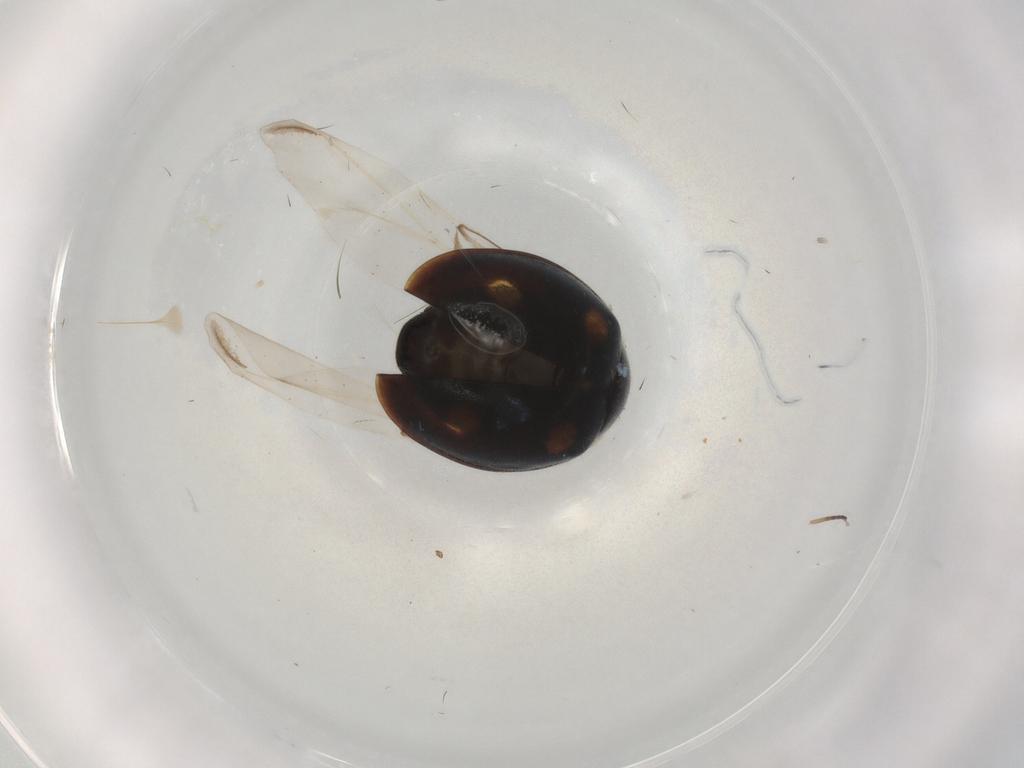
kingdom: Animalia
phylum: Arthropoda
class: Insecta
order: Coleoptera
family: Coccinellidae
